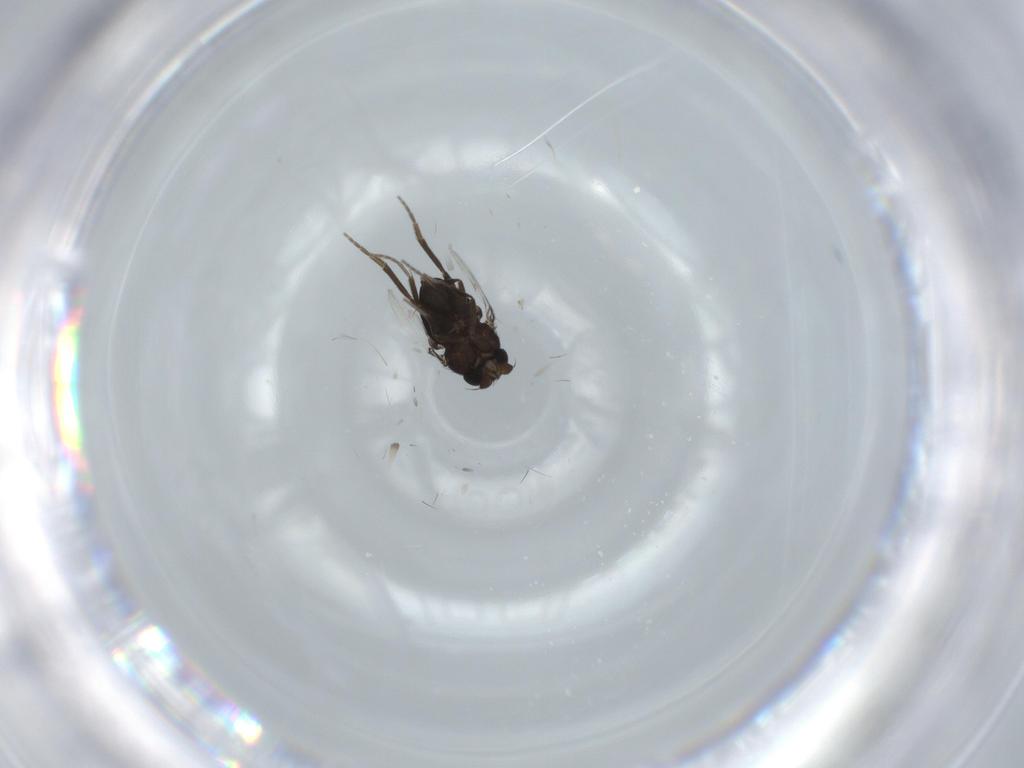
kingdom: Animalia
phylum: Arthropoda
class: Insecta
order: Diptera
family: Phoridae
